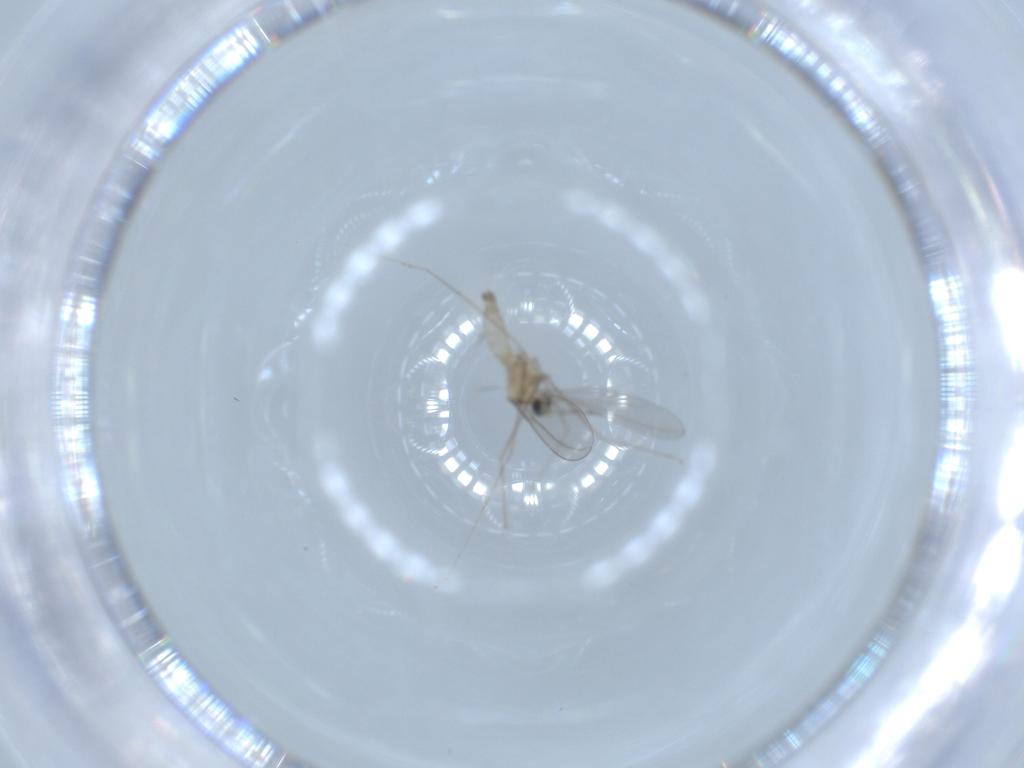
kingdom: Animalia
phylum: Arthropoda
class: Insecta
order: Diptera
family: Cecidomyiidae
